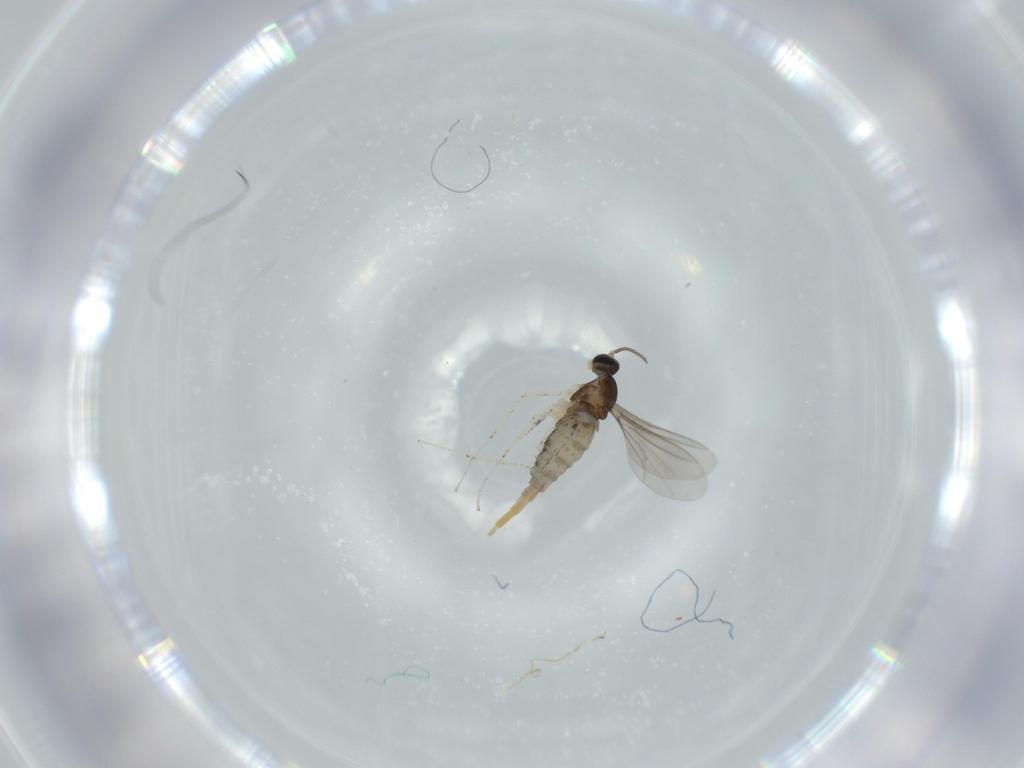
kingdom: Animalia
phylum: Arthropoda
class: Insecta
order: Diptera
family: Cecidomyiidae
